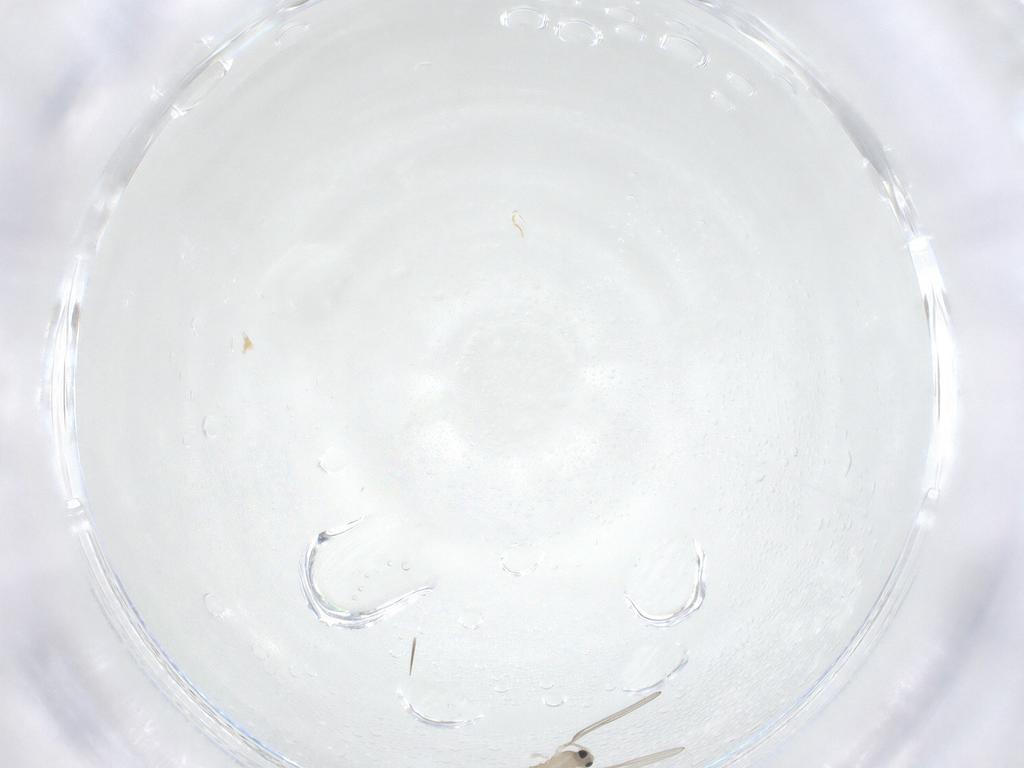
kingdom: Animalia
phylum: Arthropoda
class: Insecta
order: Diptera
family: Cecidomyiidae
